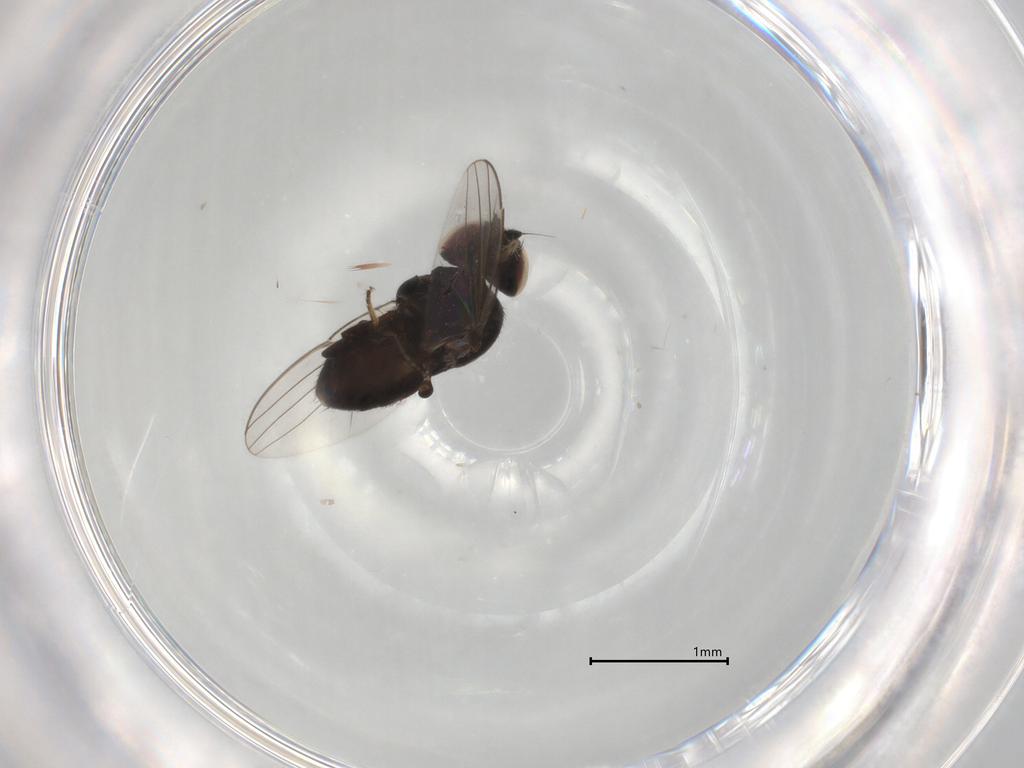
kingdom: Animalia
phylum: Arthropoda
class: Insecta
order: Diptera
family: Milichiidae
